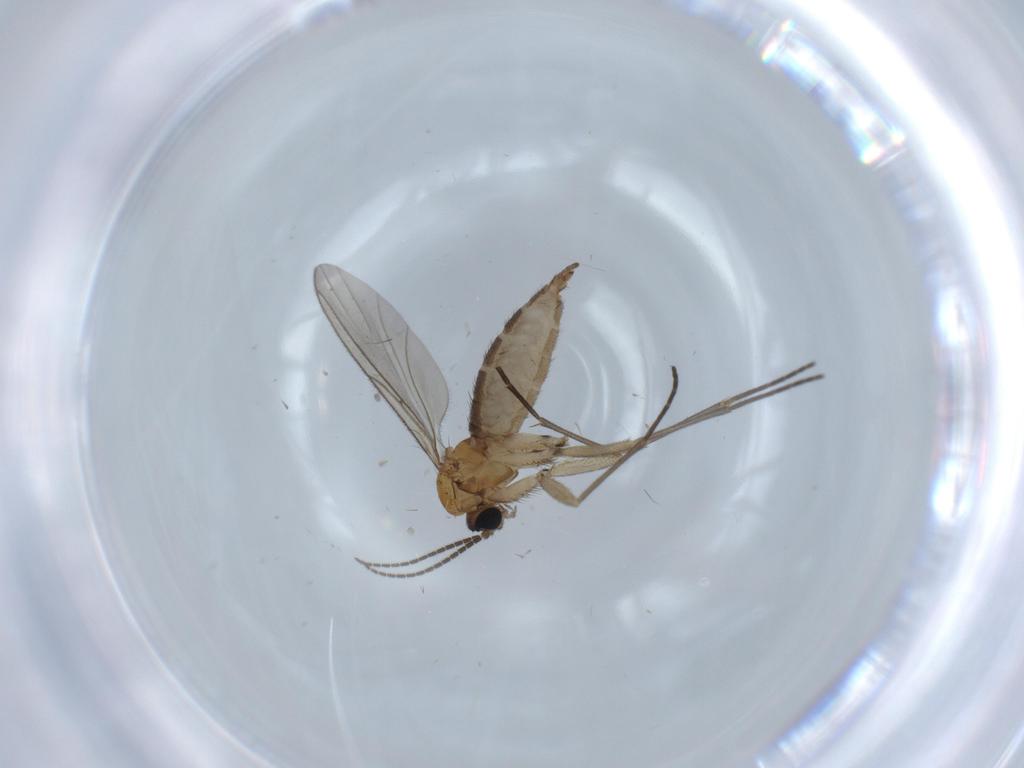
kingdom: Animalia
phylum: Arthropoda
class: Insecta
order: Diptera
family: Sciaridae
